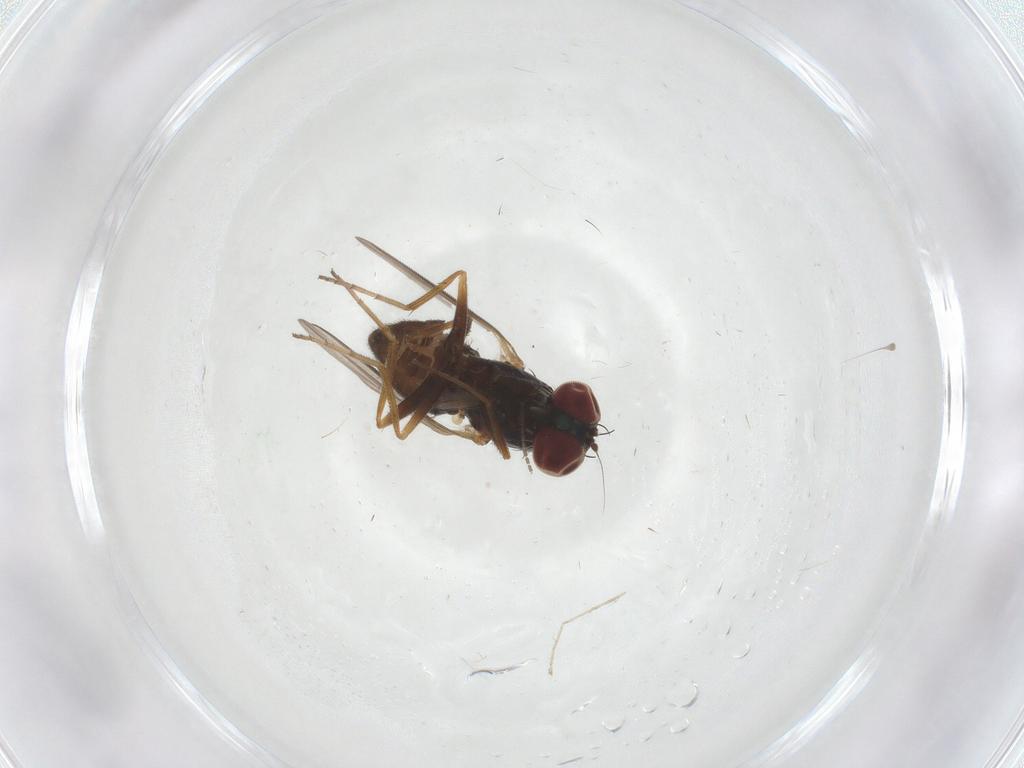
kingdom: Animalia
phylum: Arthropoda
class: Insecta
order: Diptera
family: Dolichopodidae
